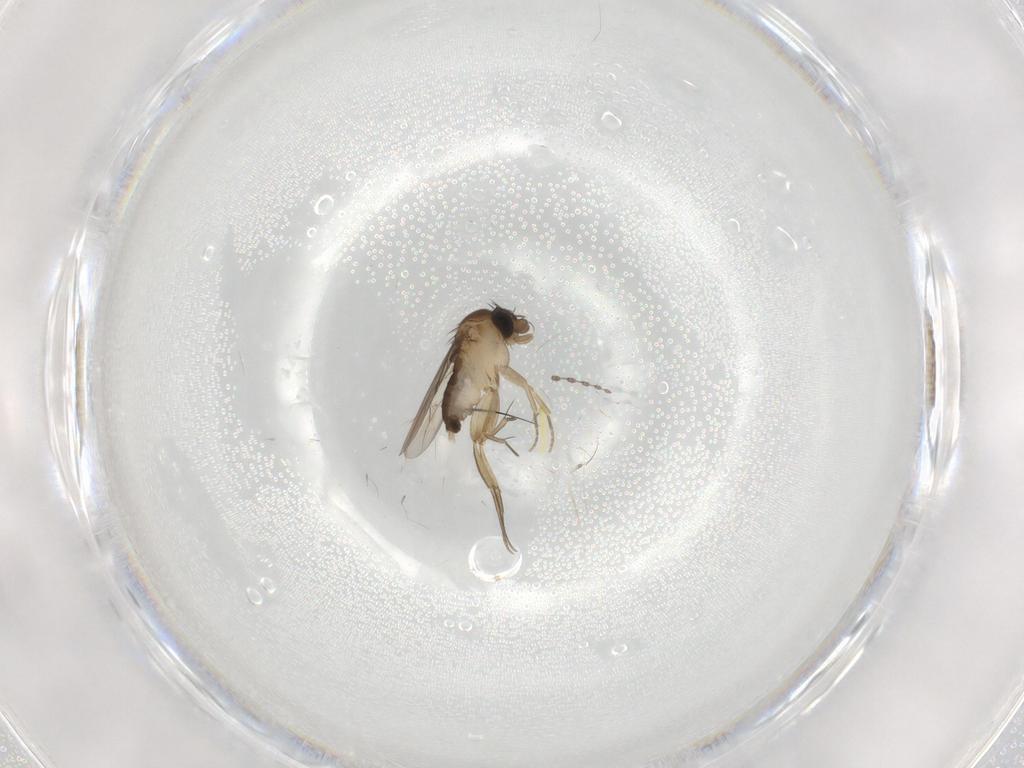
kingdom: Animalia
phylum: Arthropoda
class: Insecta
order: Diptera
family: Phoridae
